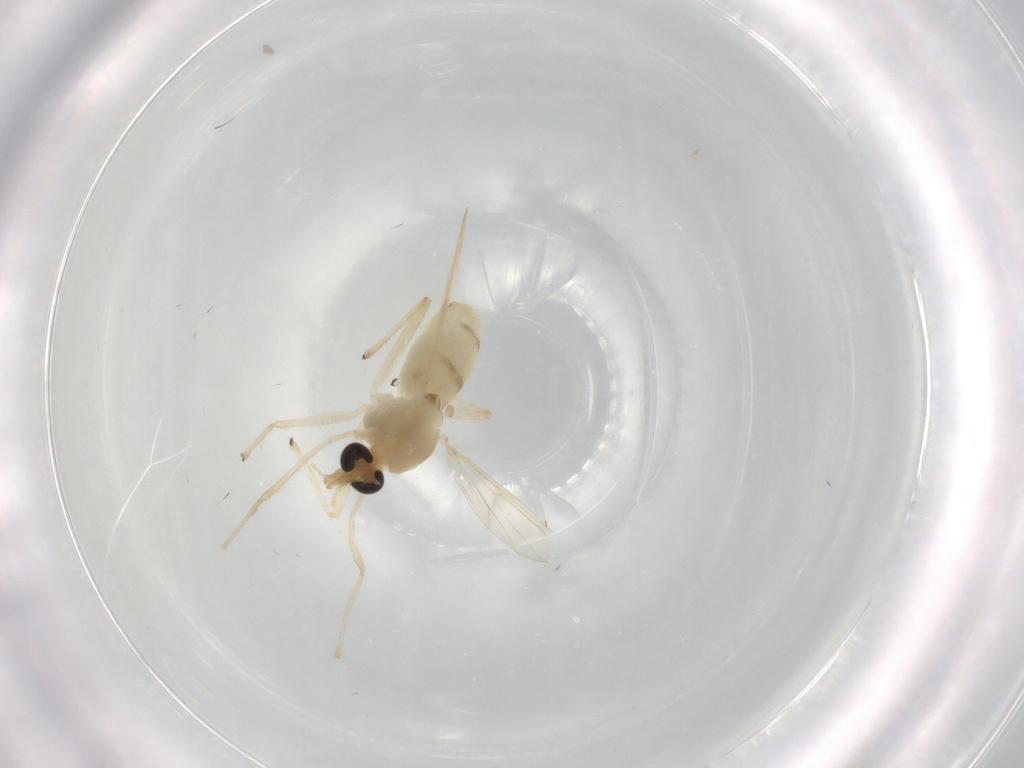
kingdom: Animalia
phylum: Arthropoda
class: Insecta
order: Diptera
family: Chironomidae
